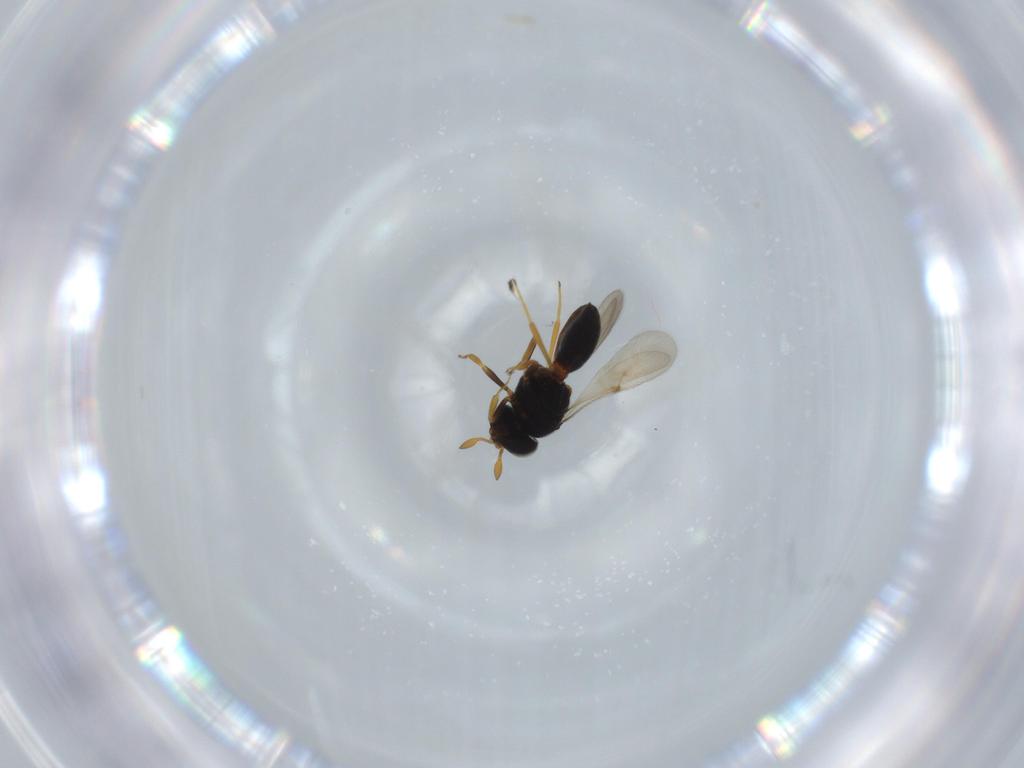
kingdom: Animalia
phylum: Arthropoda
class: Insecta
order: Hymenoptera
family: Scelionidae
